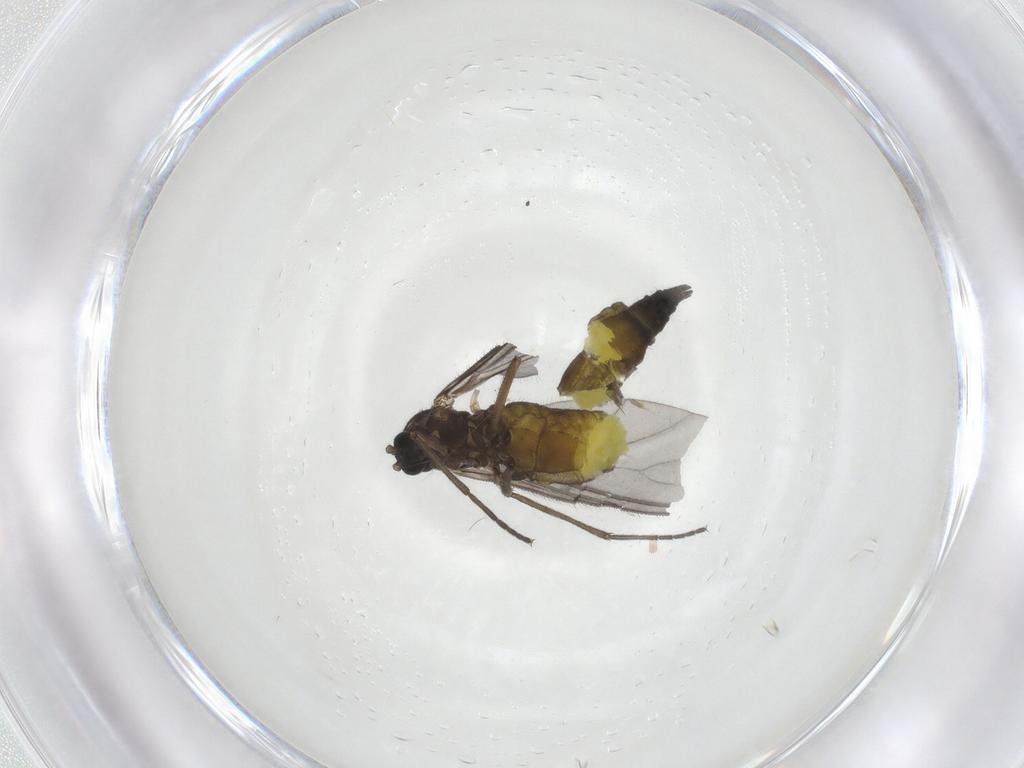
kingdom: Animalia
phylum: Arthropoda
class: Insecta
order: Diptera
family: Sciaridae
